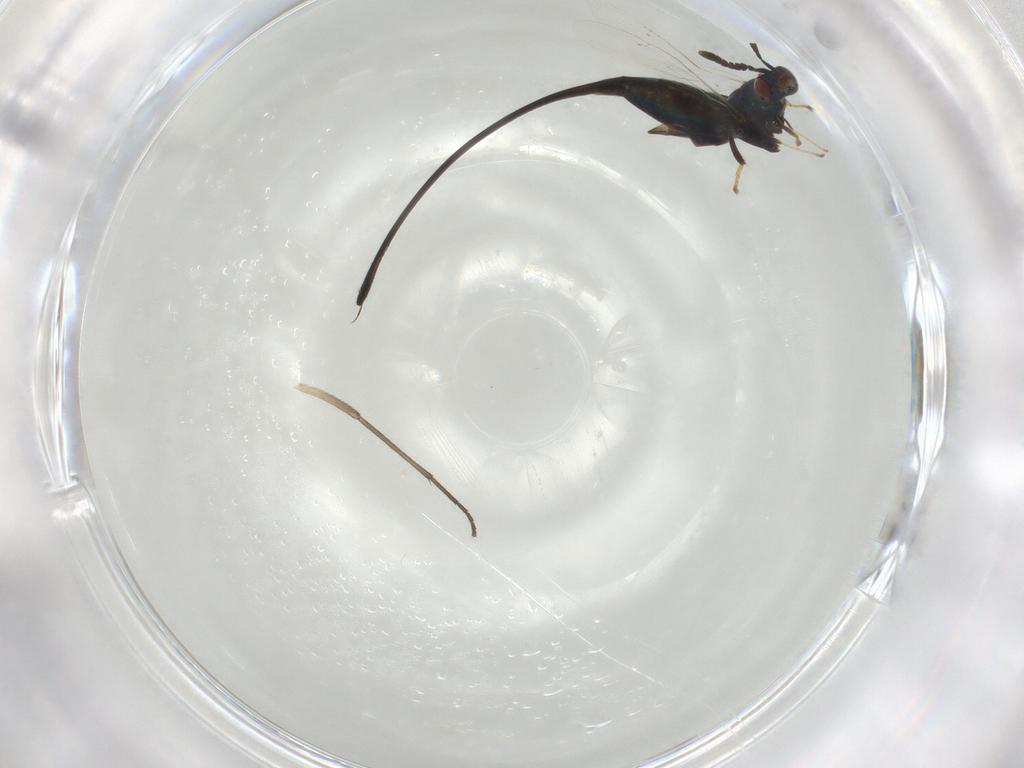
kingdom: Animalia
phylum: Arthropoda
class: Insecta
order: Hymenoptera
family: Pteromalidae
